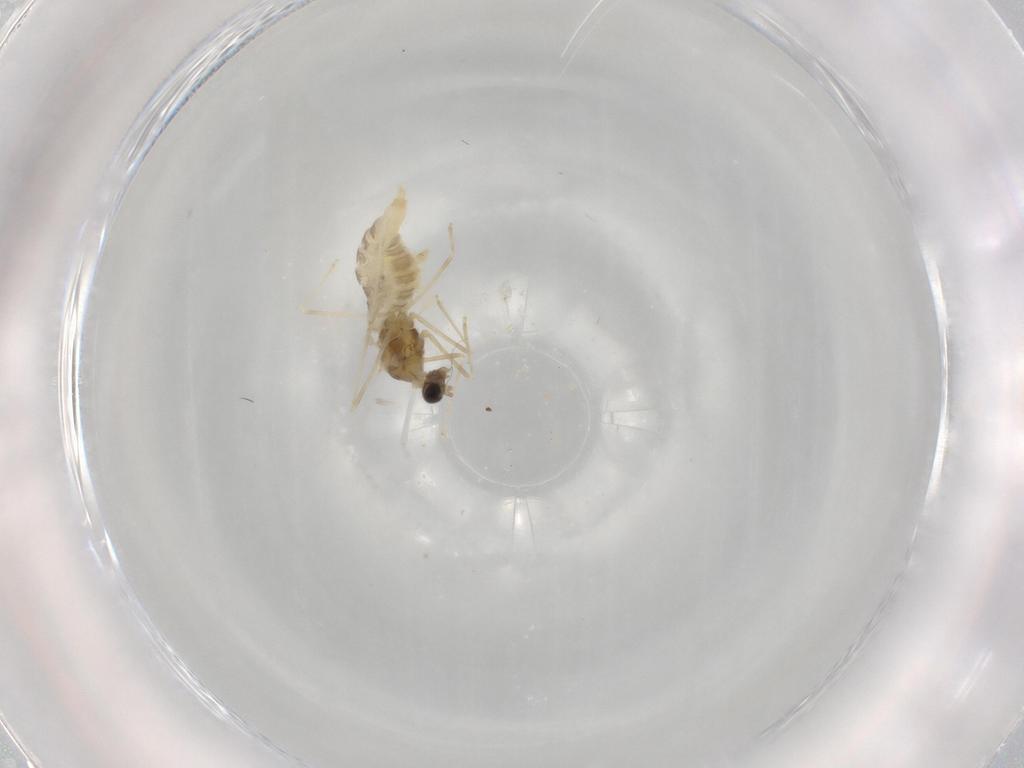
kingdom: Animalia
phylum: Arthropoda
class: Insecta
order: Diptera
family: Cecidomyiidae
